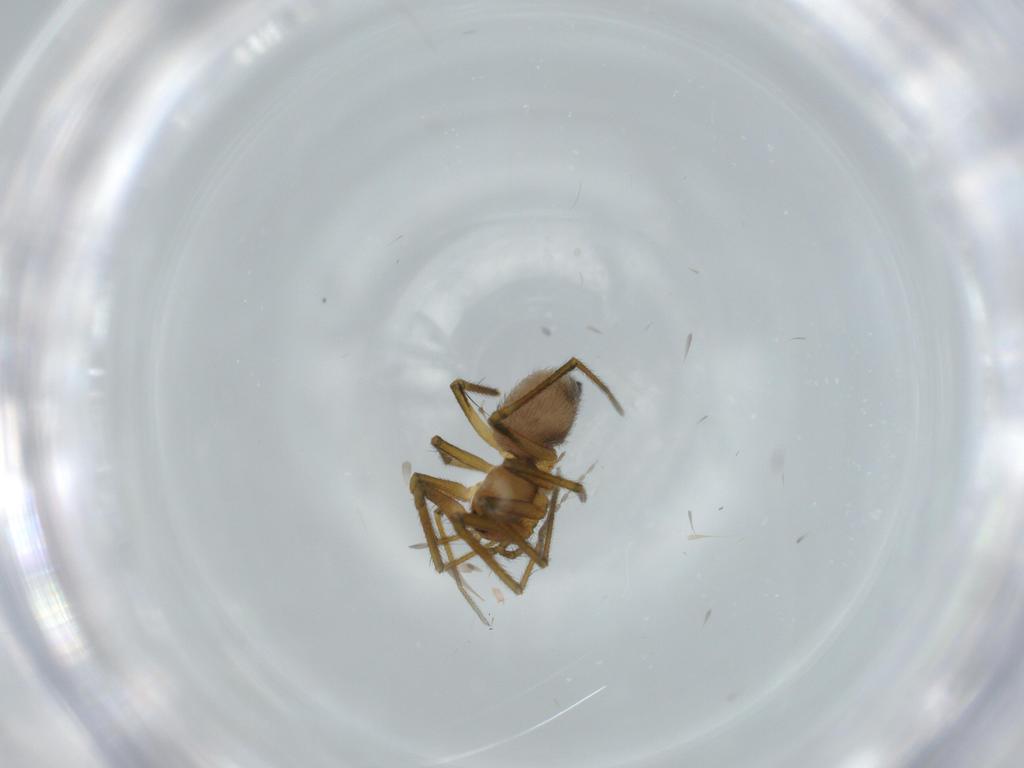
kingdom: Animalia
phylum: Arthropoda
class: Arachnida
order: Araneae
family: Linyphiidae
